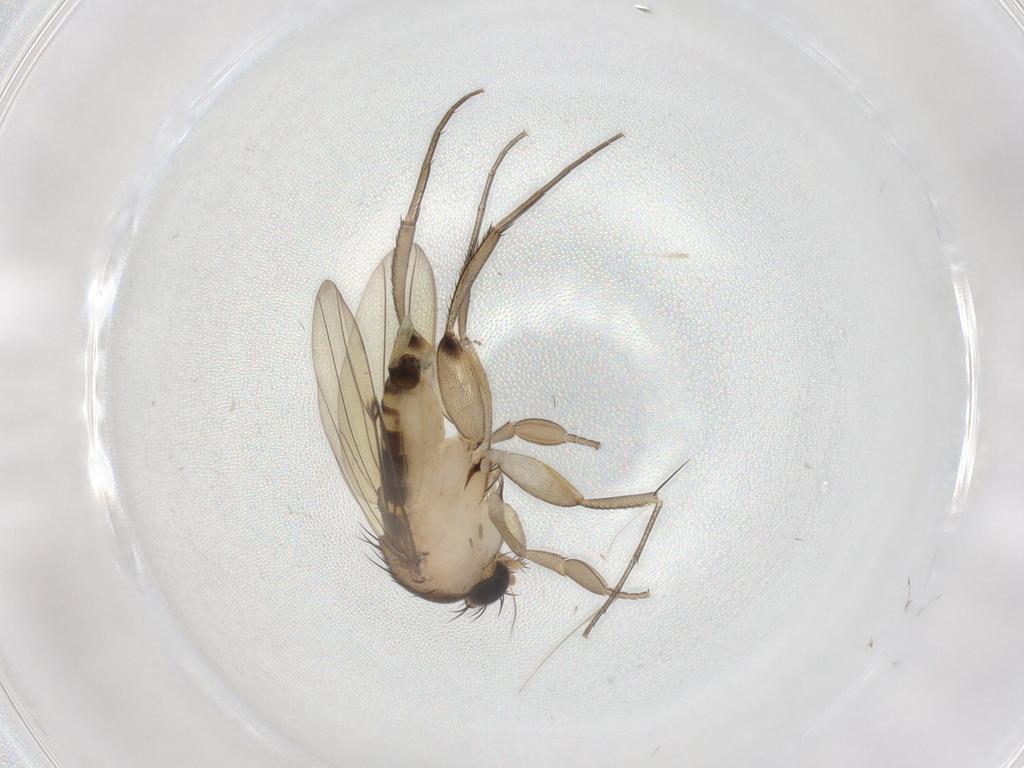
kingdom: Animalia
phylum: Arthropoda
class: Insecta
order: Diptera
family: Phoridae
